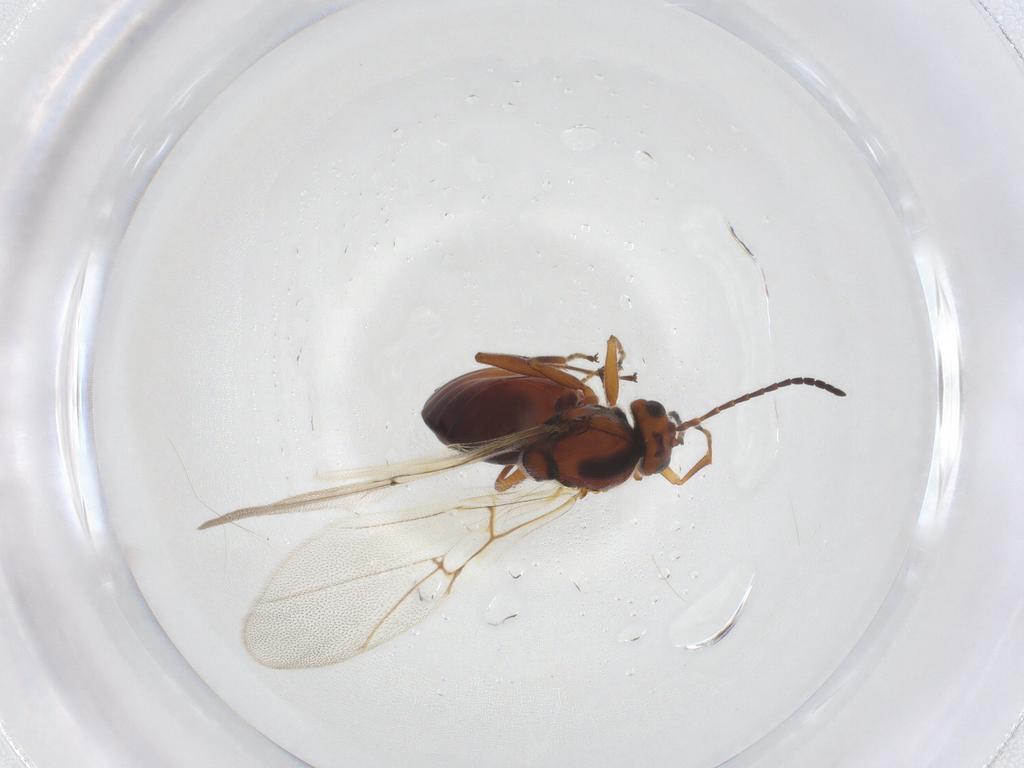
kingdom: Animalia
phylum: Arthropoda
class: Insecta
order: Hymenoptera
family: Cynipidae
